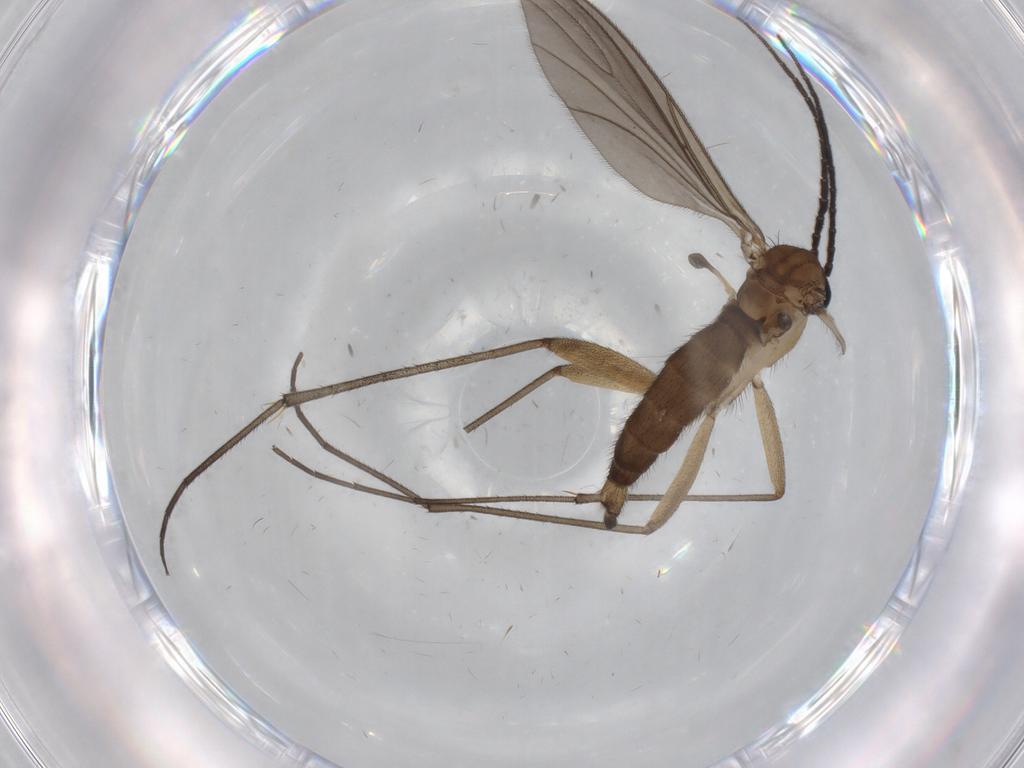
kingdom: Animalia
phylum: Arthropoda
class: Insecta
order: Diptera
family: Sciaridae
